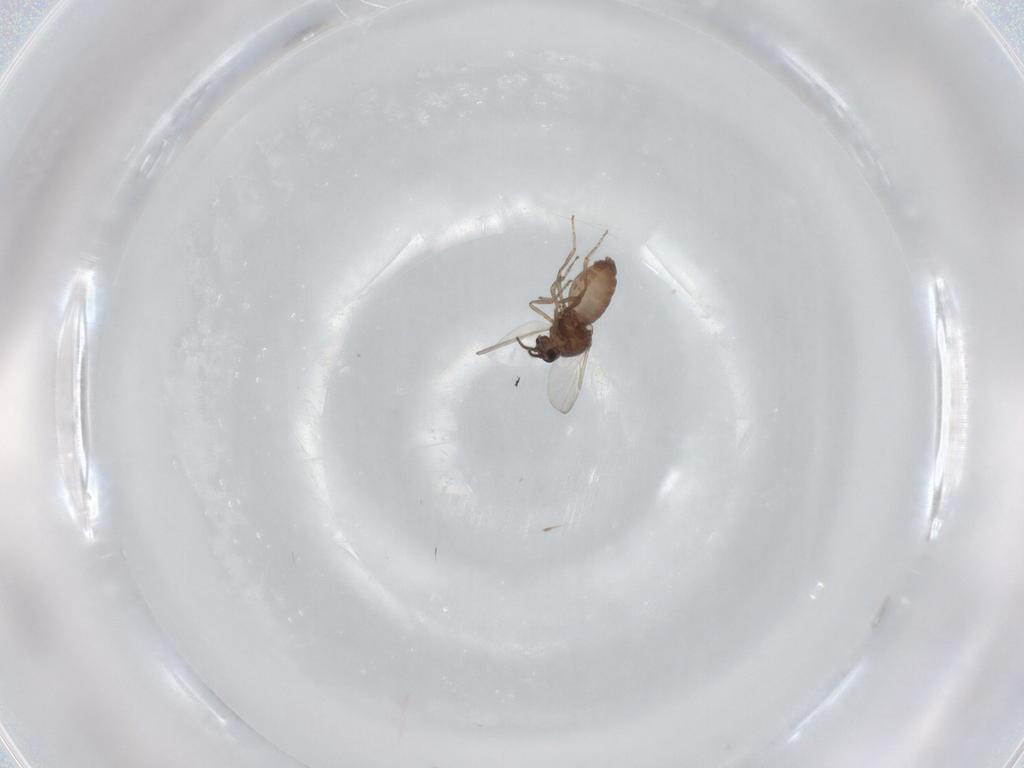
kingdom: Animalia
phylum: Arthropoda
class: Insecta
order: Diptera
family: Ceratopogonidae
